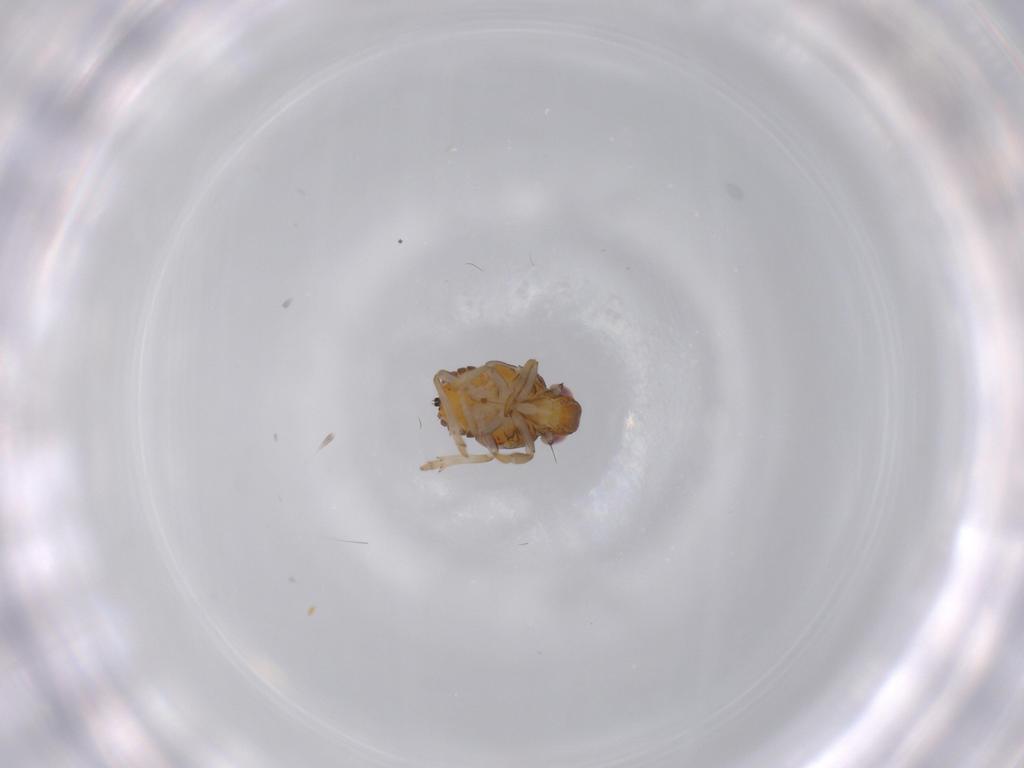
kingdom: Animalia
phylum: Arthropoda
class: Insecta
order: Hemiptera
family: Issidae
